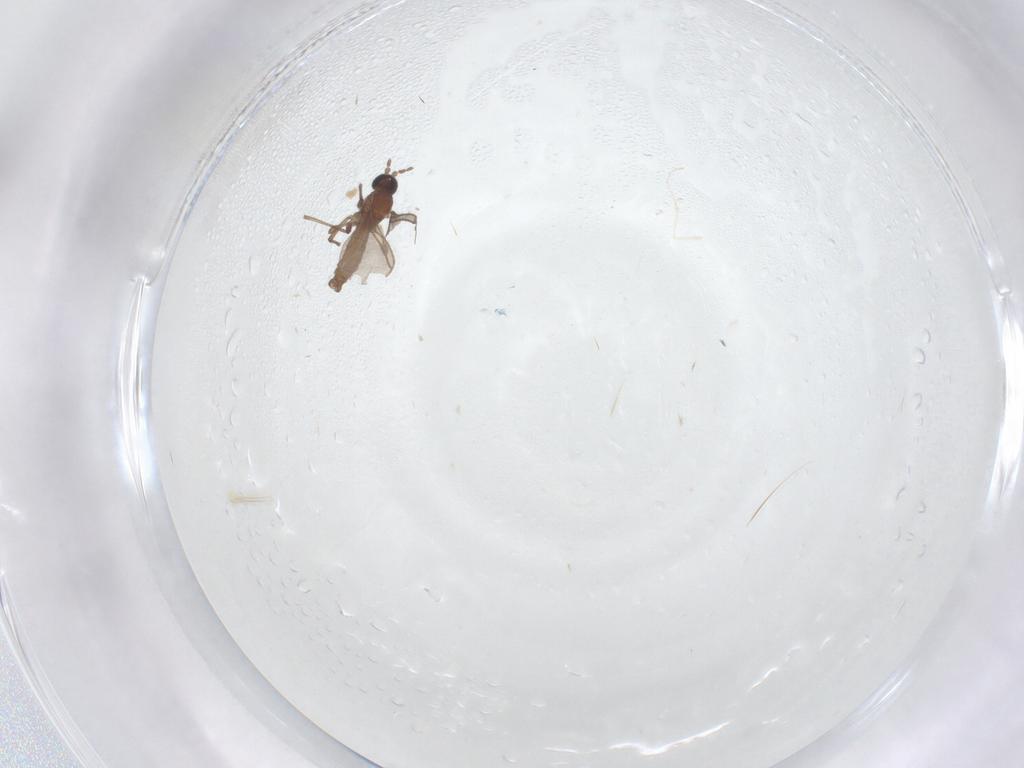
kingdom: Animalia
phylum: Arthropoda
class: Insecta
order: Diptera
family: Ceratopogonidae
